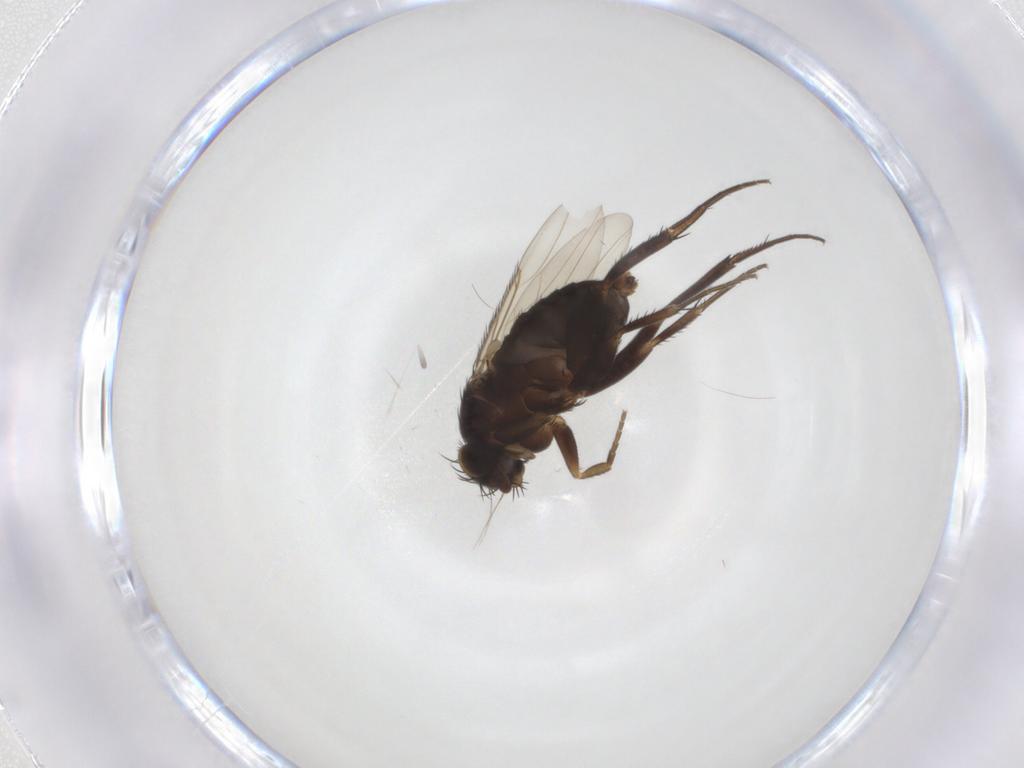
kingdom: Animalia
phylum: Arthropoda
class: Insecta
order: Diptera
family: Phoridae
